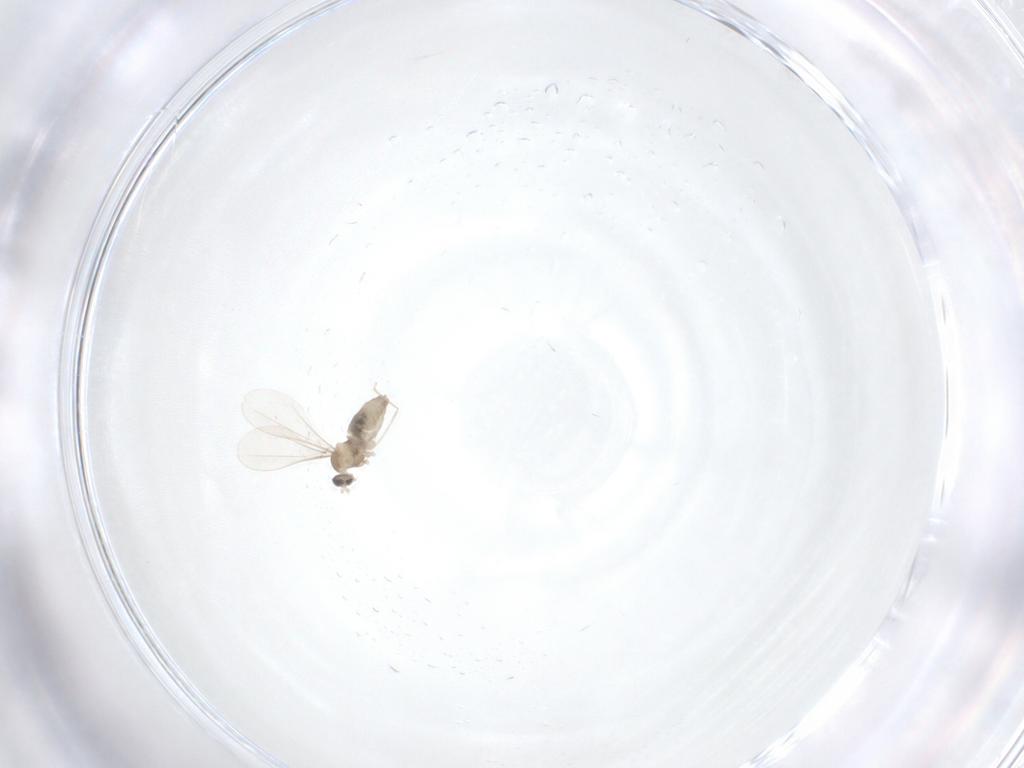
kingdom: Animalia
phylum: Arthropoda
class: Insecta
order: Diptera
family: Cecidomyiidae
